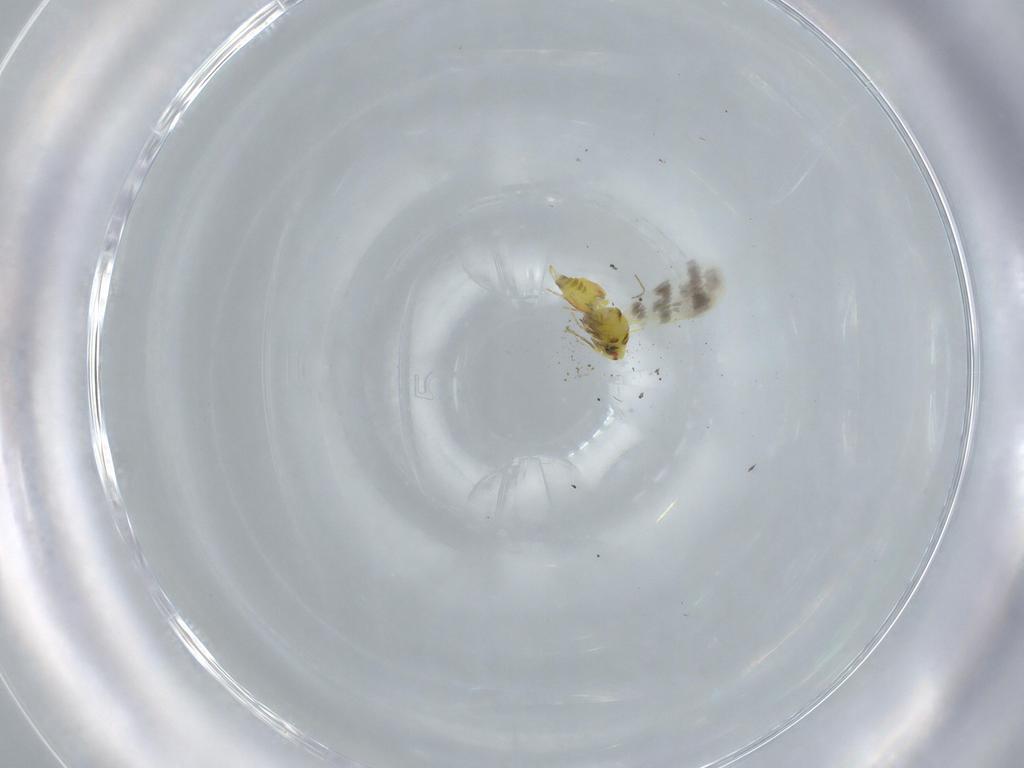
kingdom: Animalia
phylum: Arthropoda
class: Insecta
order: Hemiptera
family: Aleyrodidae
